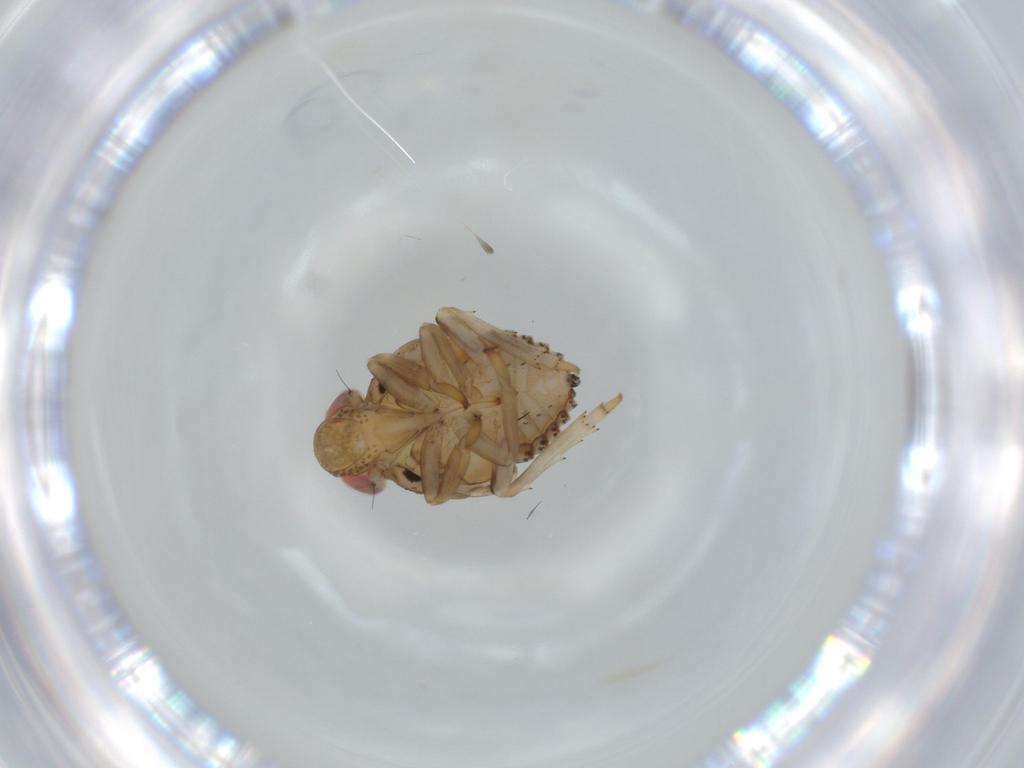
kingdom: Animalia
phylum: Arthropoda
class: Insecta
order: Hemiptera
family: Issidae
